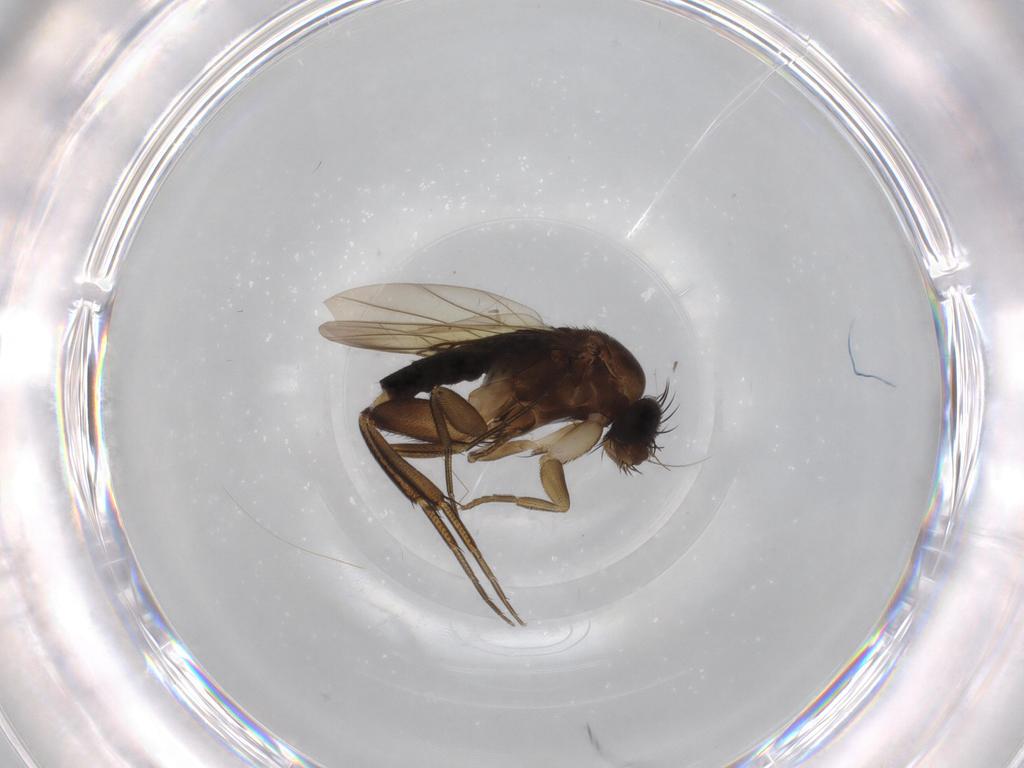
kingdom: Animalia
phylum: Arthropoda
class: Insecta
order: Diptera
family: Phoridae
